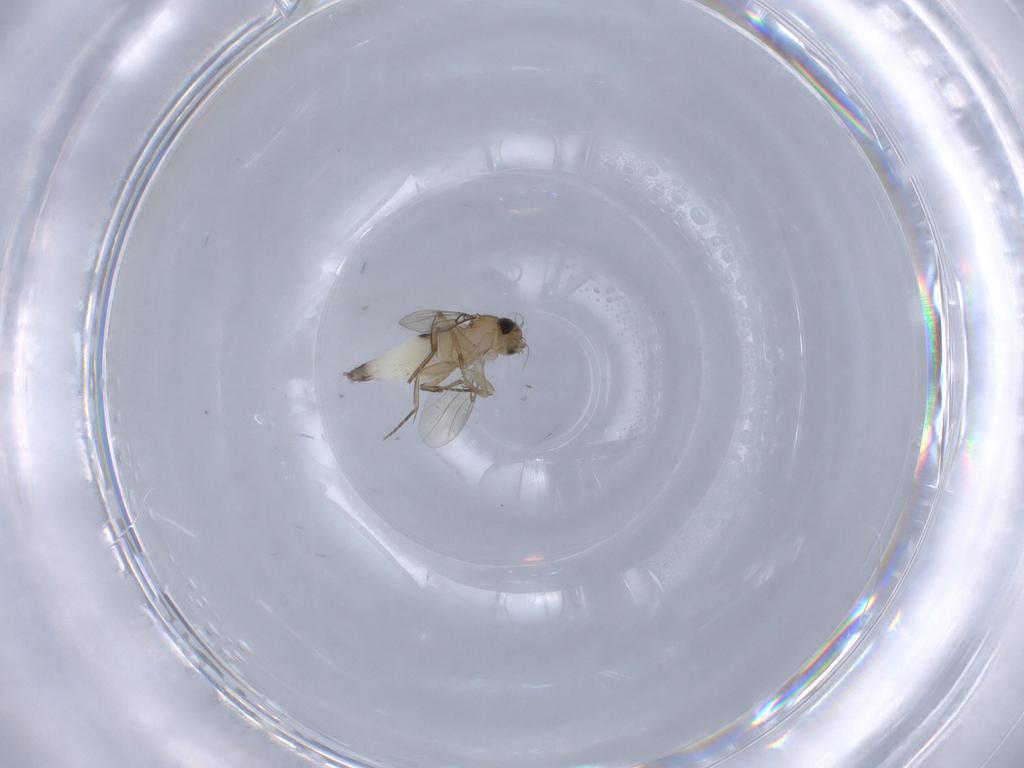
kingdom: Animalia
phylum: Arthropoda
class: Insecta
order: Diptera
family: Phoridae
